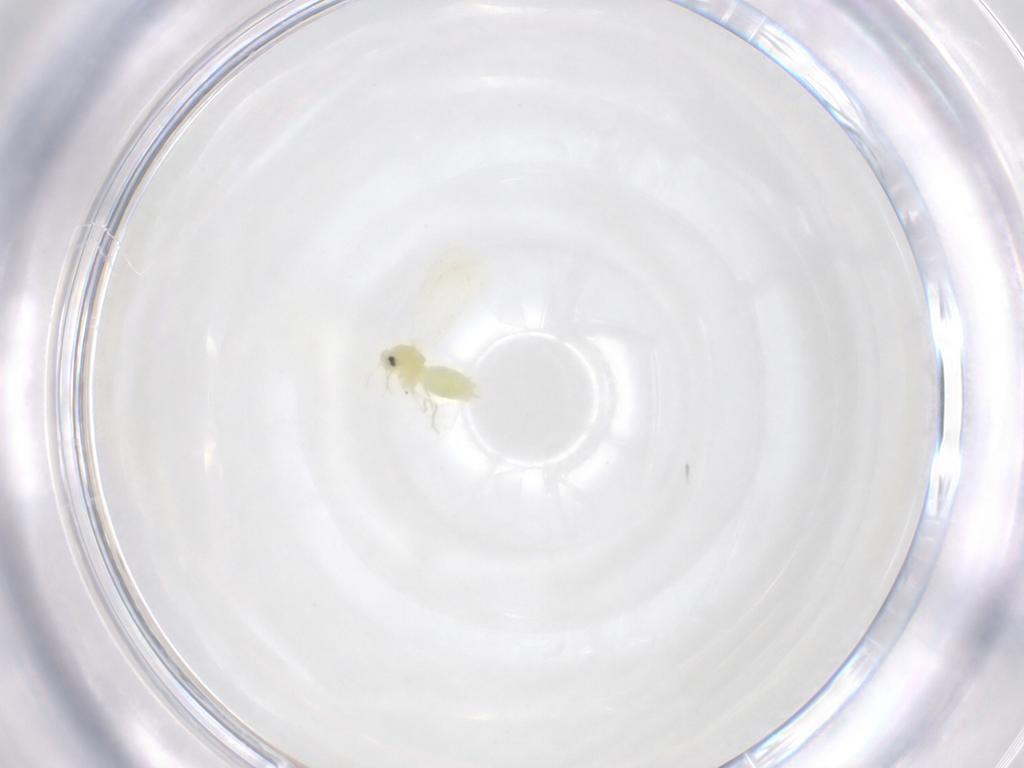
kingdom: Animalia
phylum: Arthropoda
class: Insecta
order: Hemiptera
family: Aleyrodidae
